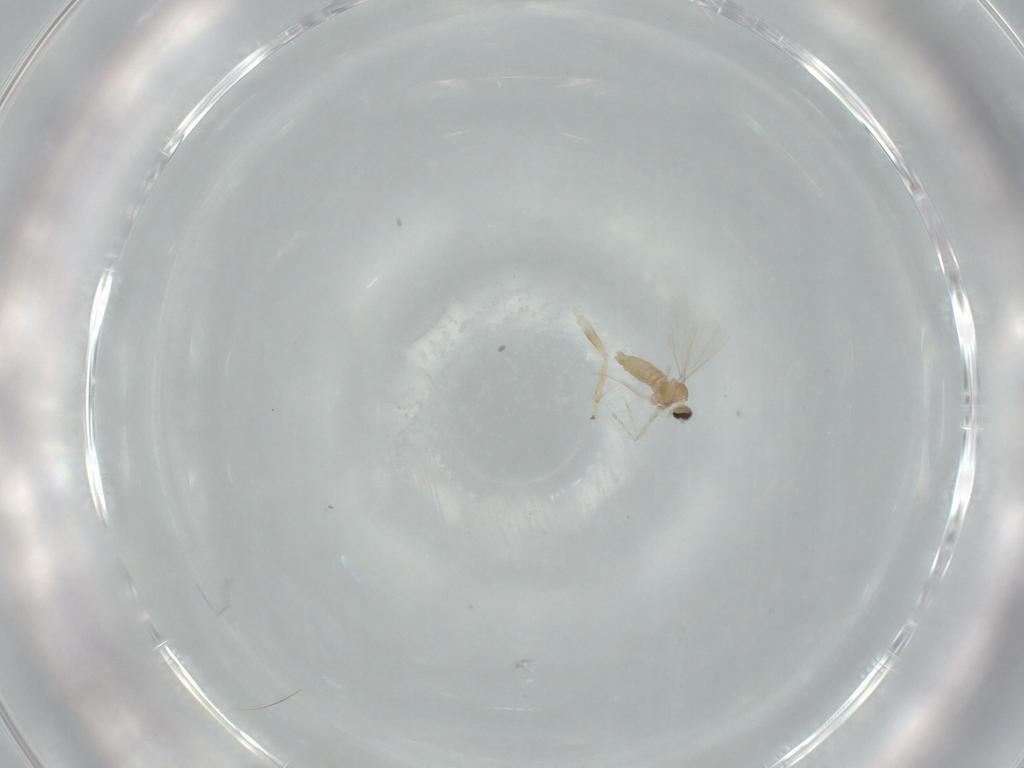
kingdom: Animalia
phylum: Arthropoda
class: Insecta
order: Diptera
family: Cecidomyiidae
